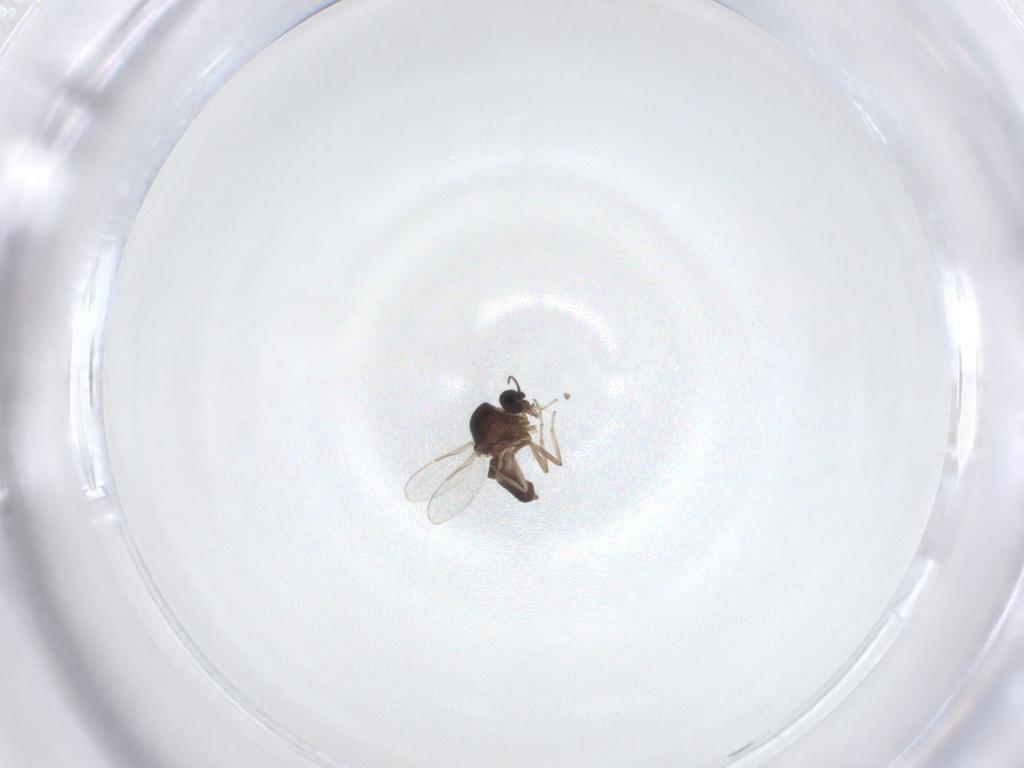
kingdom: Animalia
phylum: Arthropoda
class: Insecta
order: Diptera
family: Ceratopogonidae
